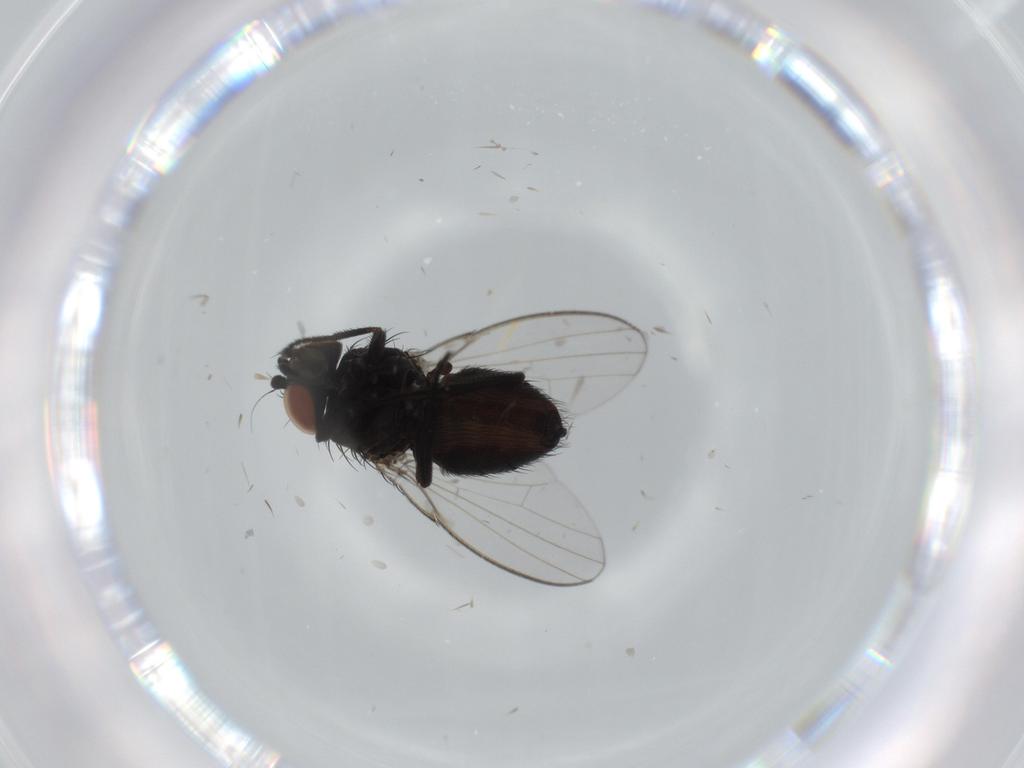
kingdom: Animalia
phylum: Arthropoda
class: Insecta
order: Diptera
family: Milichiidae
